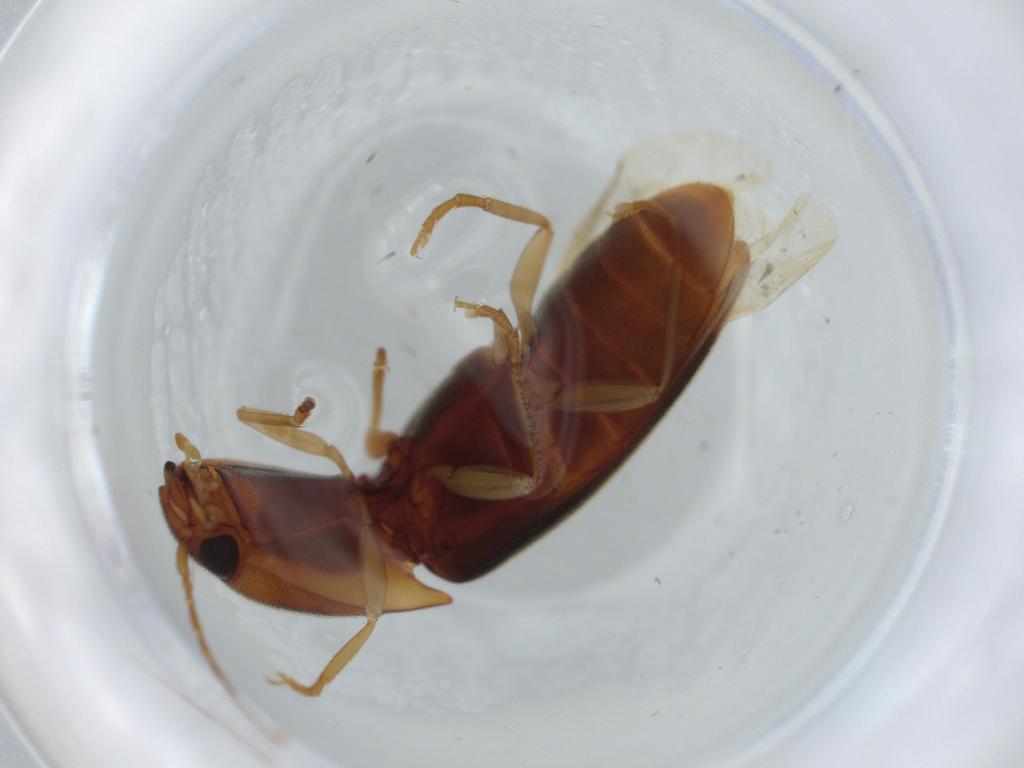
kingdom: Animalia
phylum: Arthropoda
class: Insecta
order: Coleoptera
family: Elateridae
